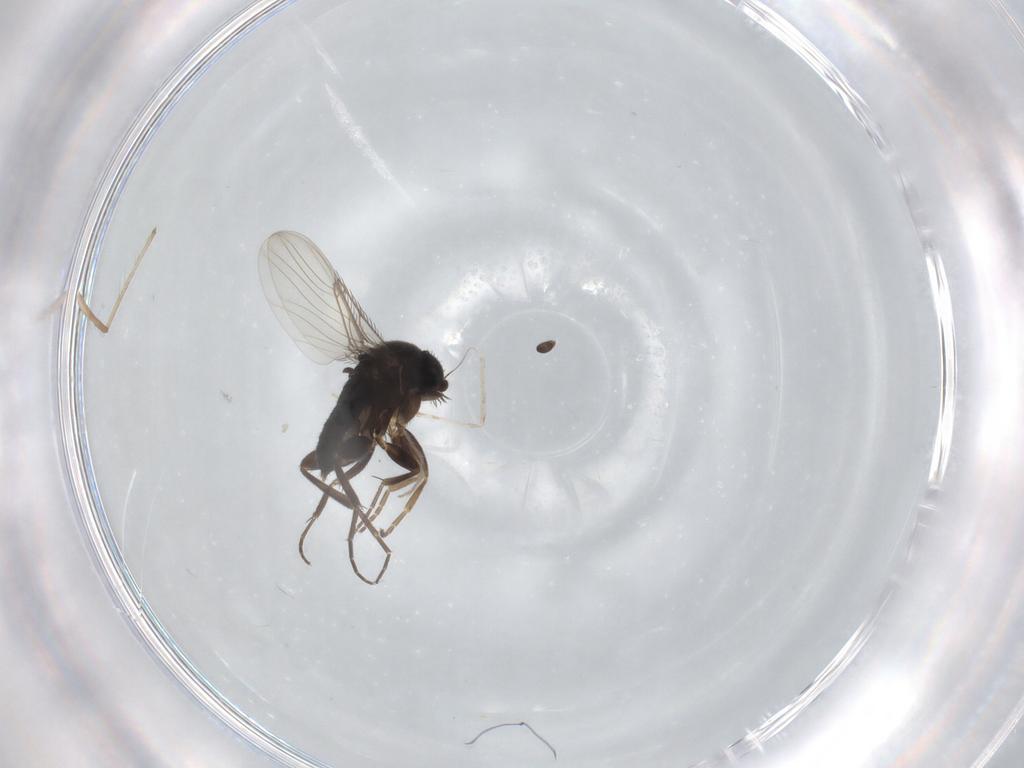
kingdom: Animalia
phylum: Arthropoda
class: Insecta
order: Diptera
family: Phoridae
